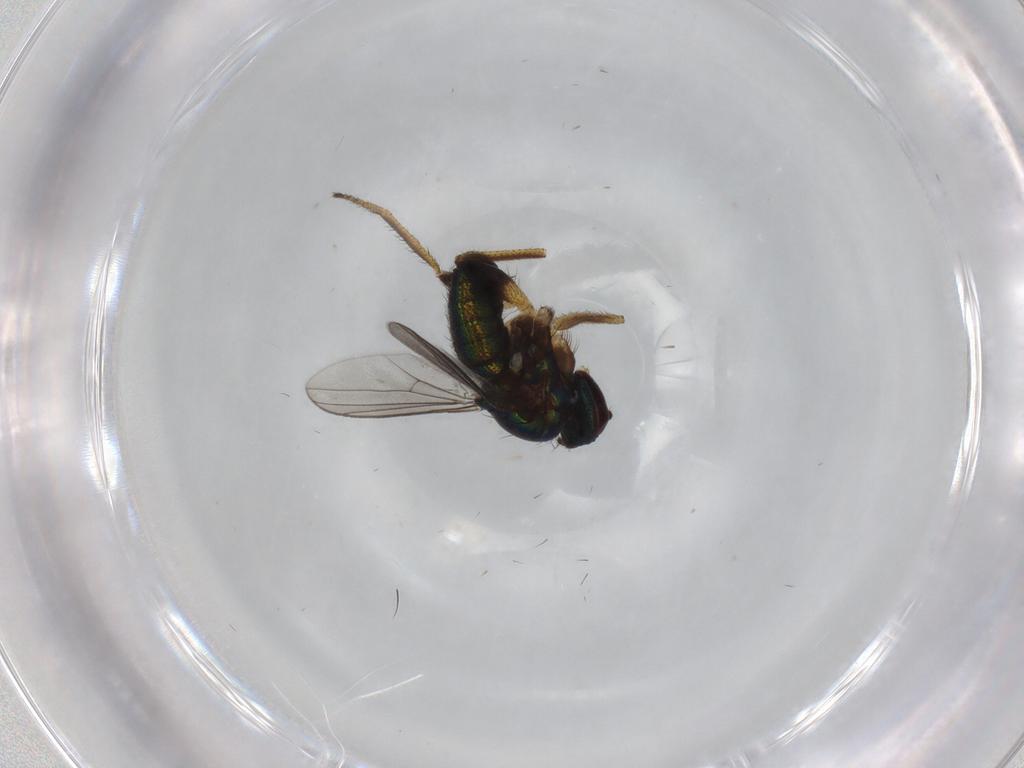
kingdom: Animalia
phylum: Arthropoda
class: Insecta
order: Diptera
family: Dolichopodidae
